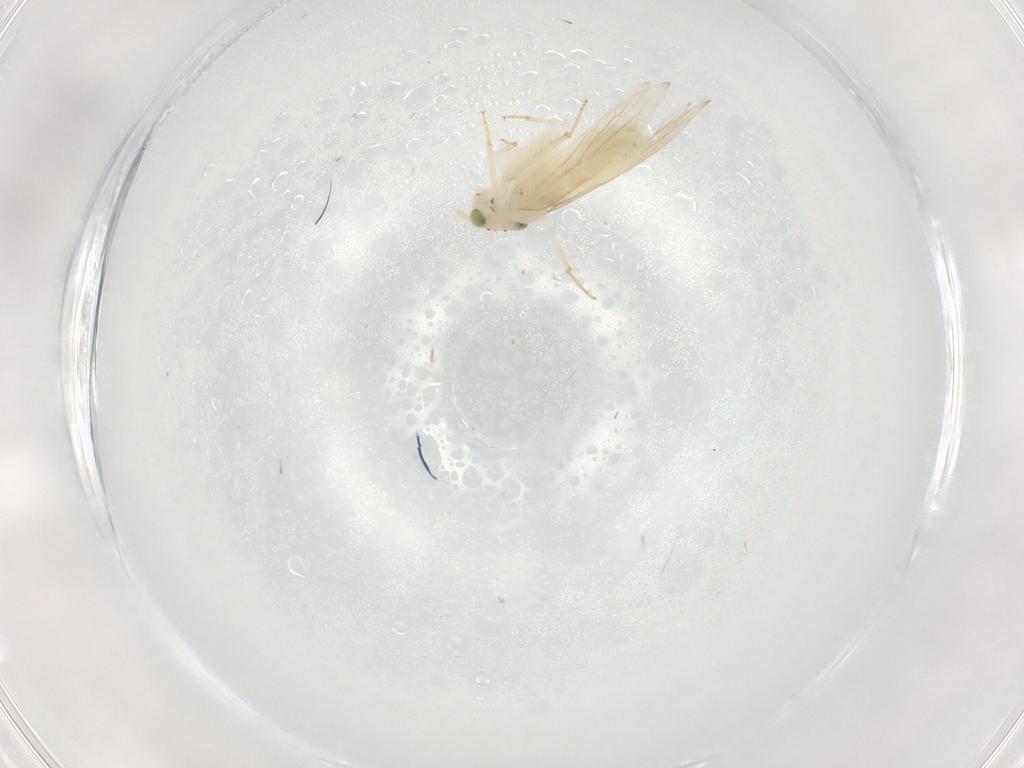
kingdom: Animalia
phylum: Arthropoda
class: Insecta
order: Psocodea
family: Lepidopsocidae
